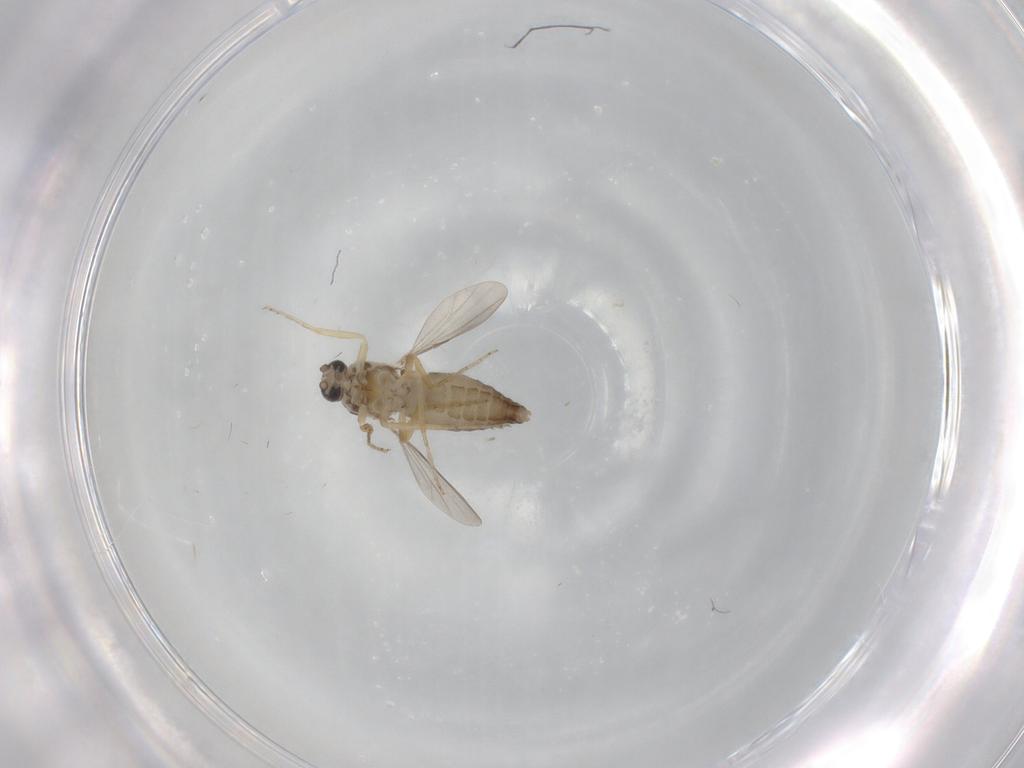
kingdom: Animalia
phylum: Arthropoda
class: Insecta
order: Diptera
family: Ceratopogonidae
